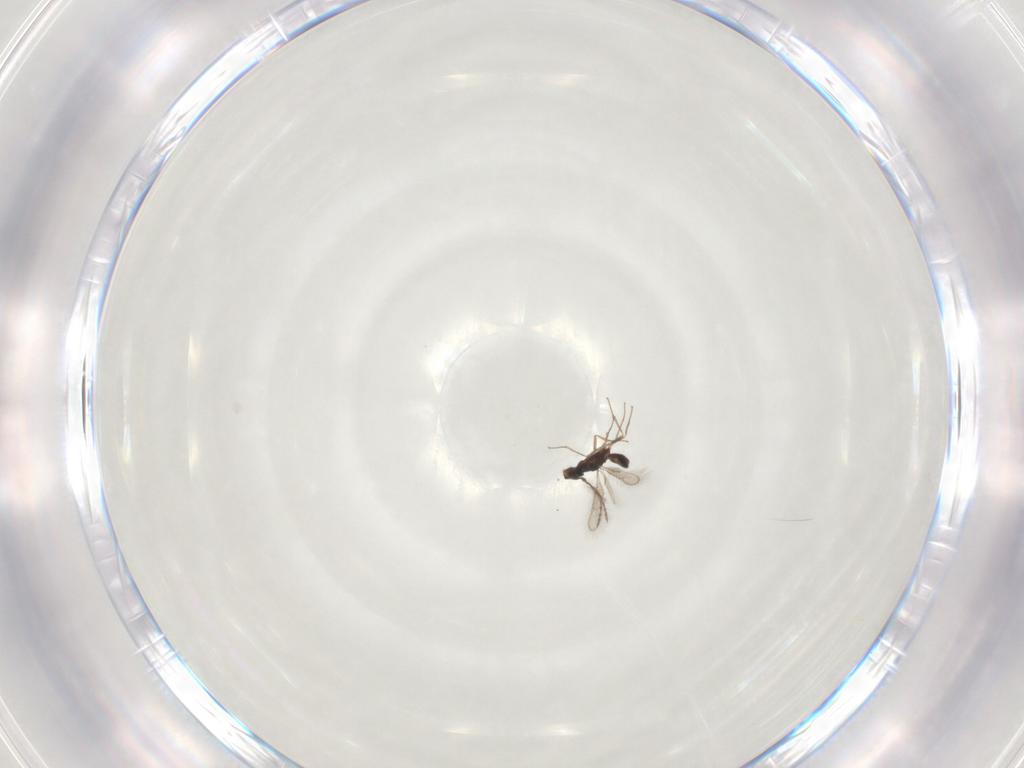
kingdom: Animalia
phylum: Arthropoda
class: Insecta
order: Hymenoptera
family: Pteromalidae
